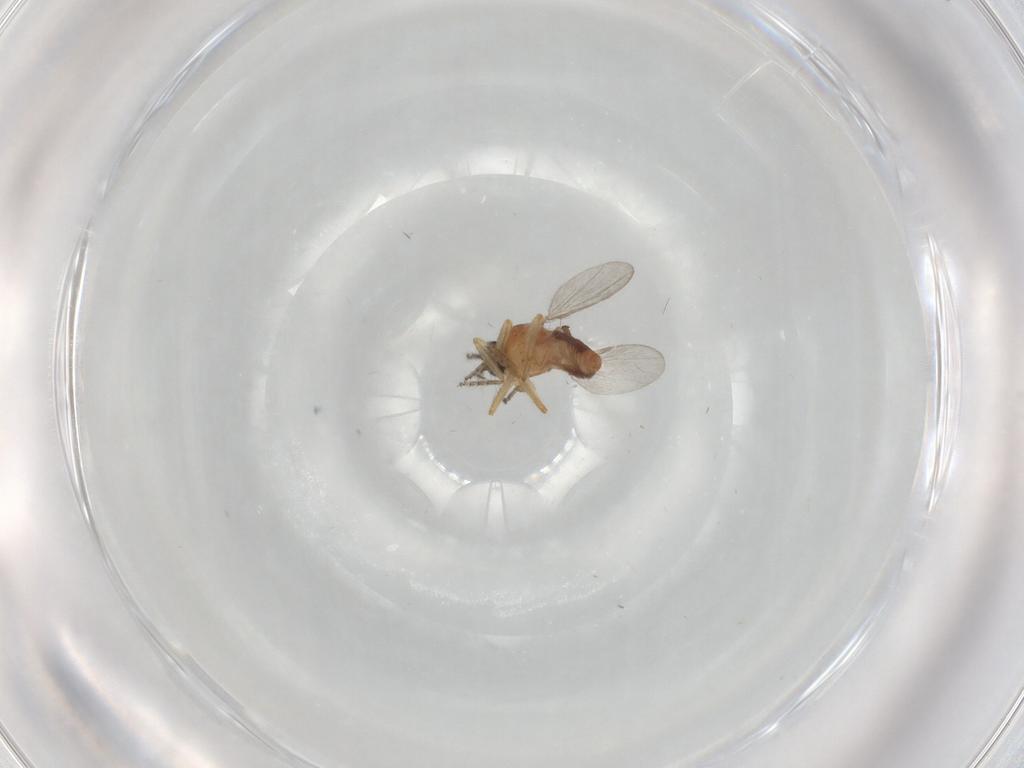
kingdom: Animalia
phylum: Arthropoda
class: Insecta
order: Diptera
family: Ceratopogonidae
